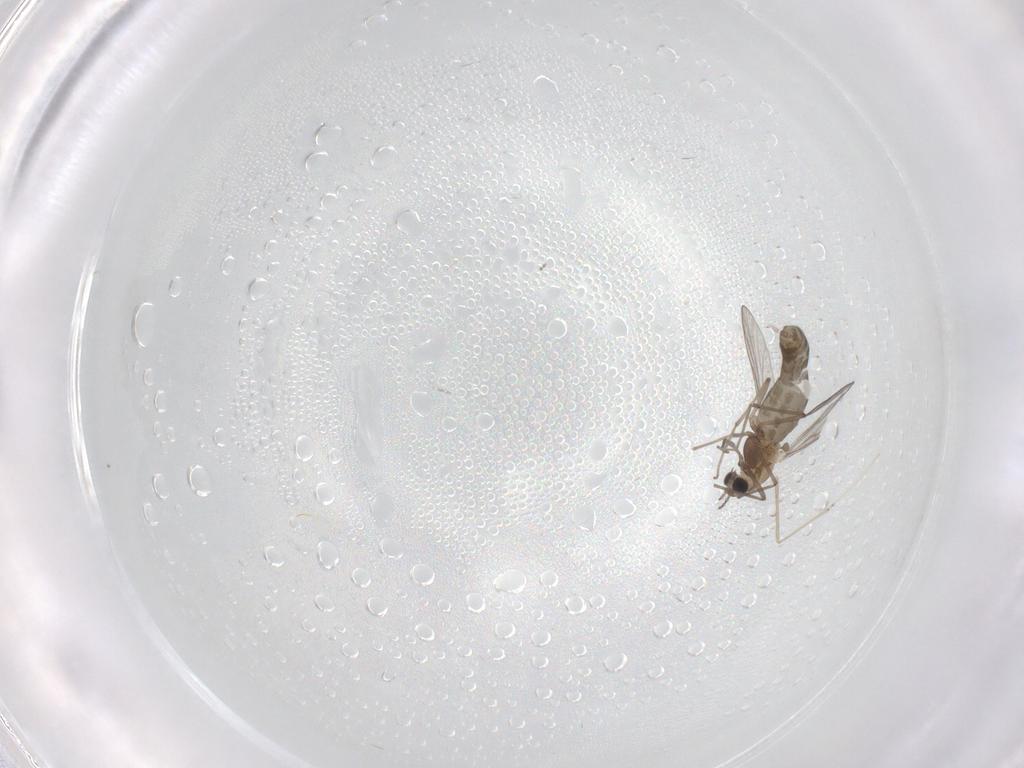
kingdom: Animalia
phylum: Arthropoda
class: Insecta
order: Diptera
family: Cecidomyiidae
